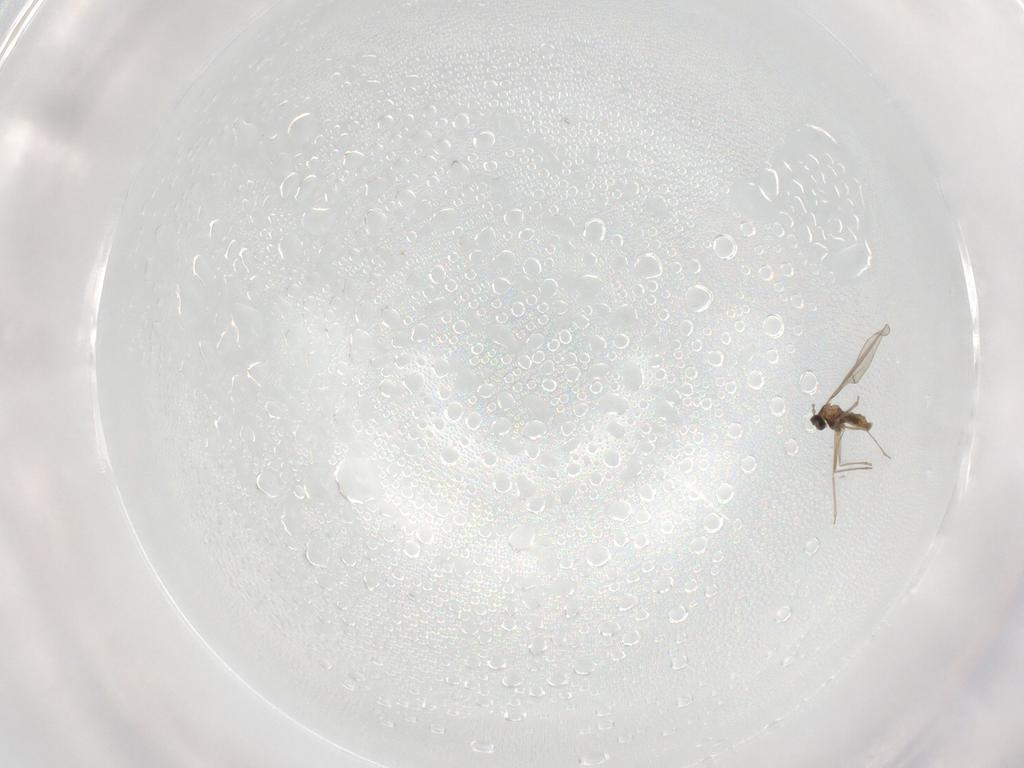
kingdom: Animalia
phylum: Arthropoda
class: Insecta
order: Diptera
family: Cecidomyiidae
